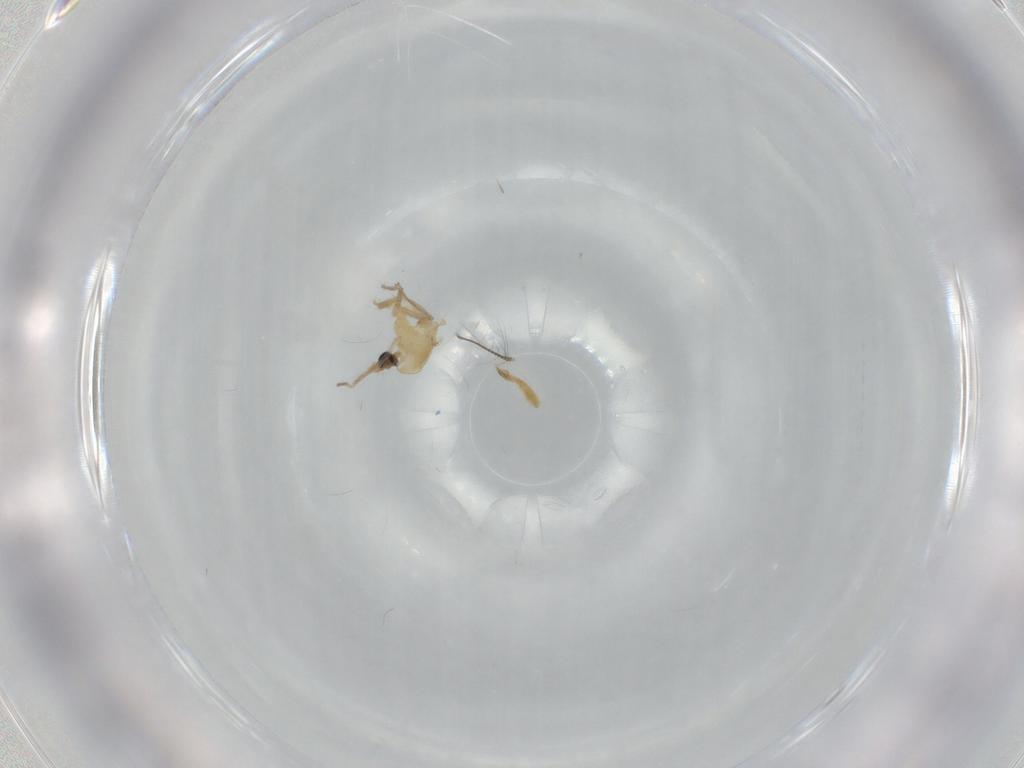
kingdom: Animalia
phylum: Arthropoda
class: Insecta
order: Diptera
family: Chironomidae
